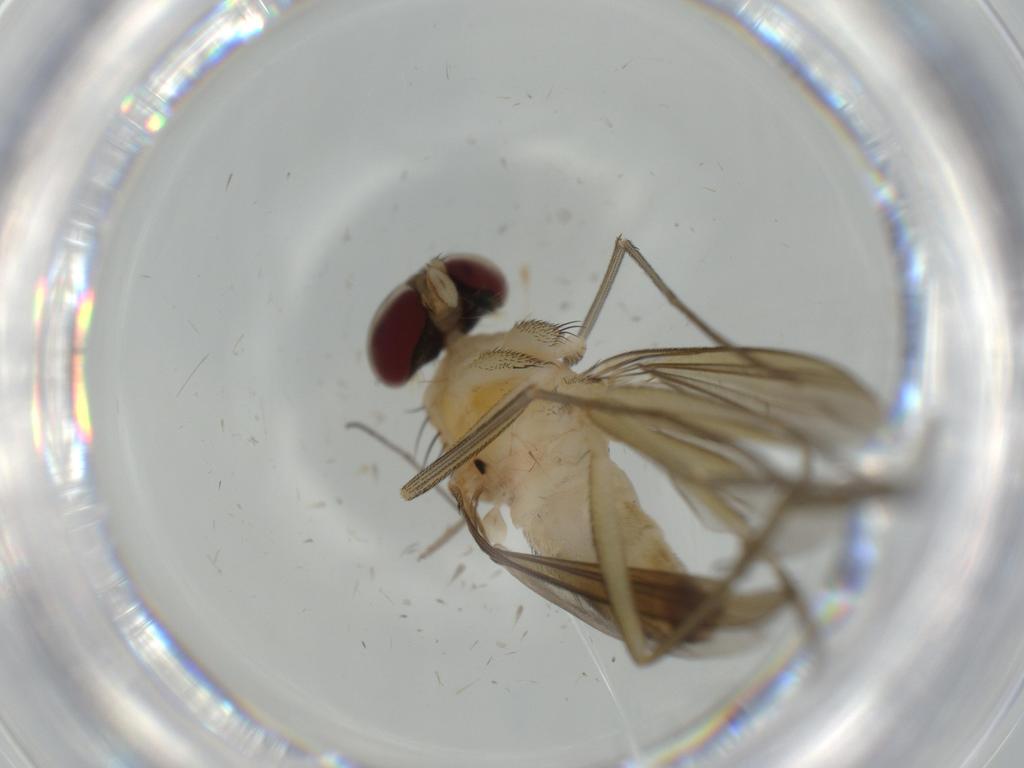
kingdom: Animalia
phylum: Arthropoda
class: Insecta
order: Diptera
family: Dolichopodidae
